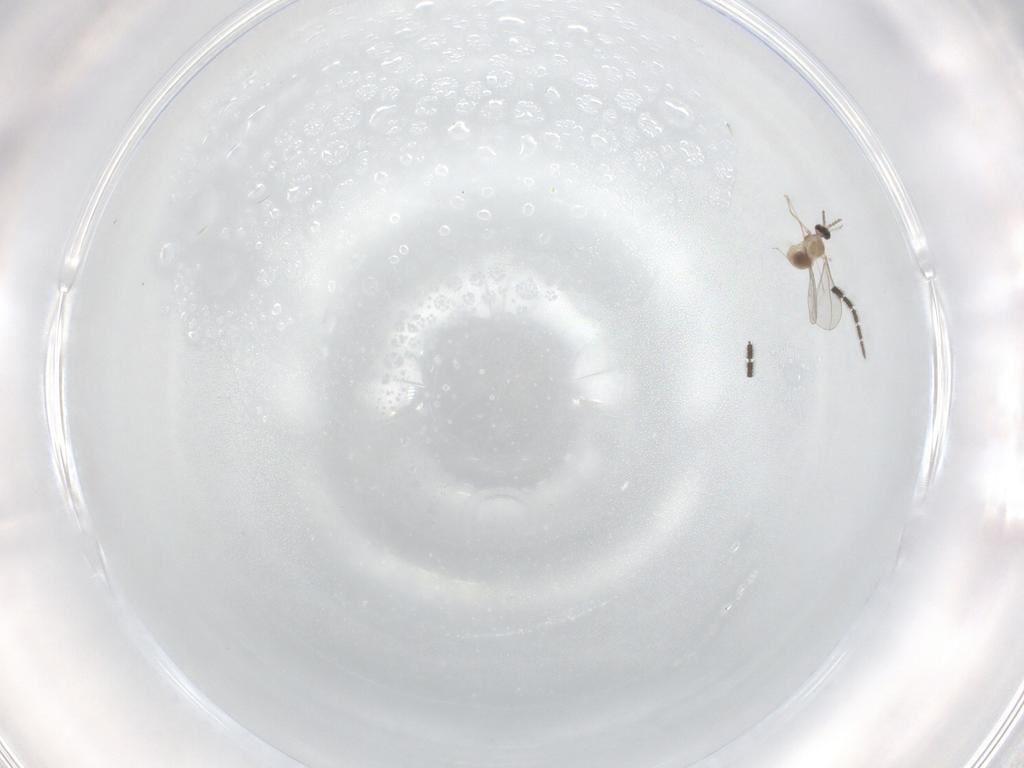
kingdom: Animalia
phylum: Arthropoda
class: Insecta
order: Diptera
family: Cecidomyiidae
